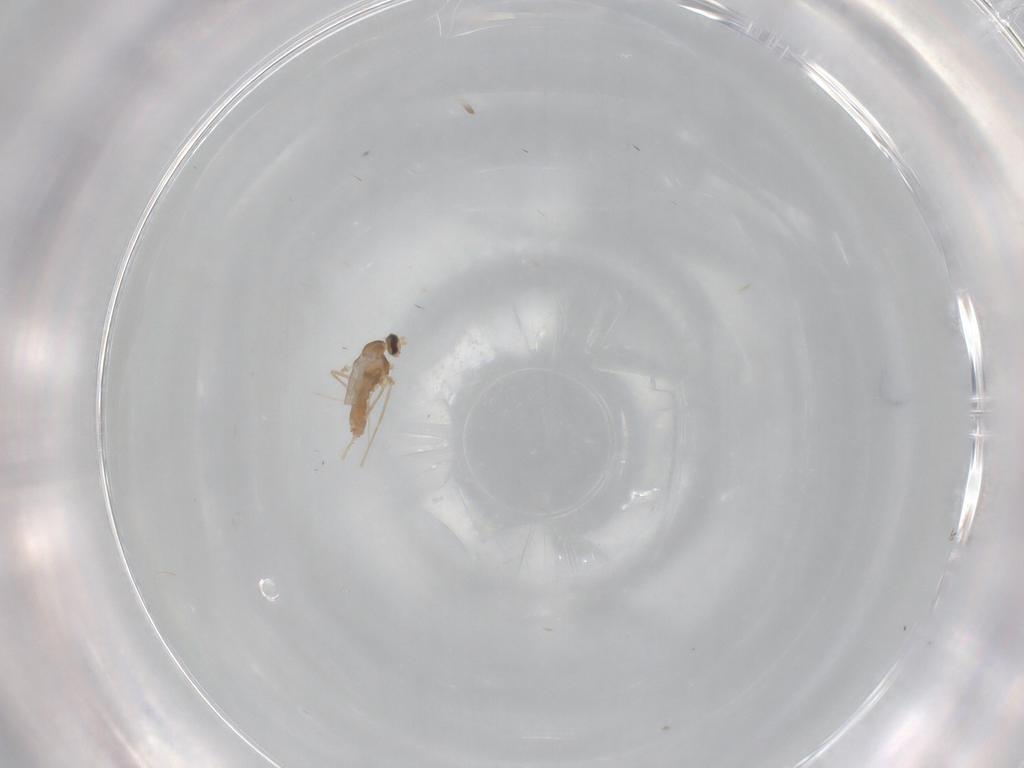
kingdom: Animalia
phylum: Arthropoda
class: Insecta
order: Diptera
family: Cecidomyiidae
